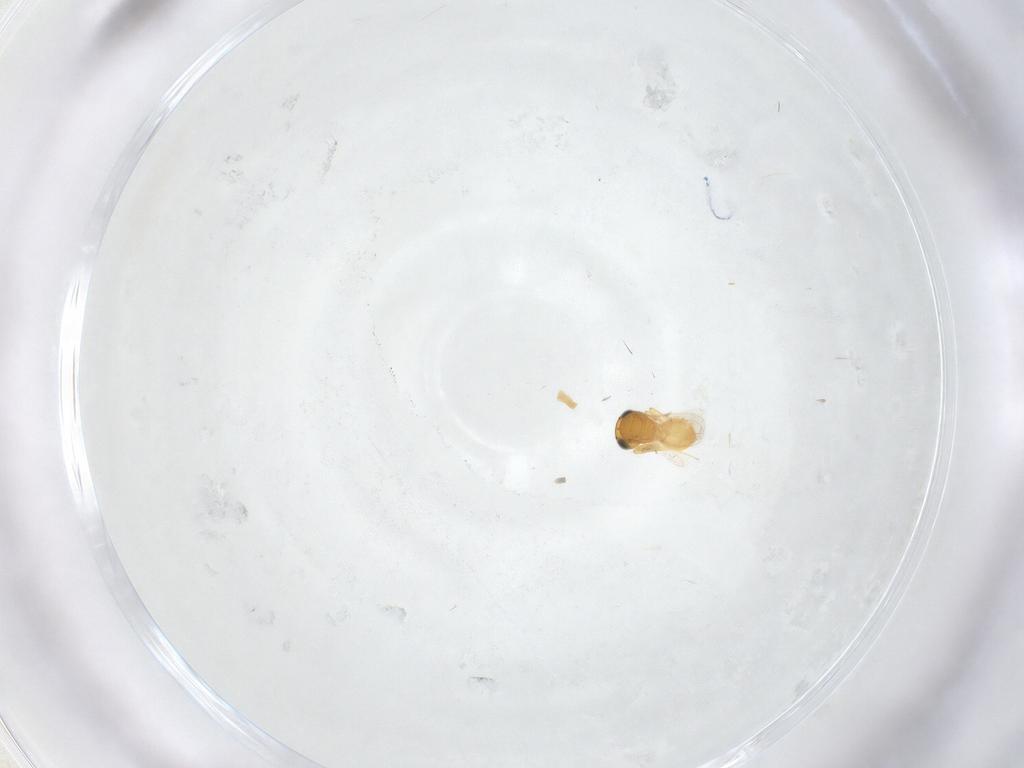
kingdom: Animalia
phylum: Arthropoda
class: Insecta
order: Hymenoptera
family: Scelionidae
